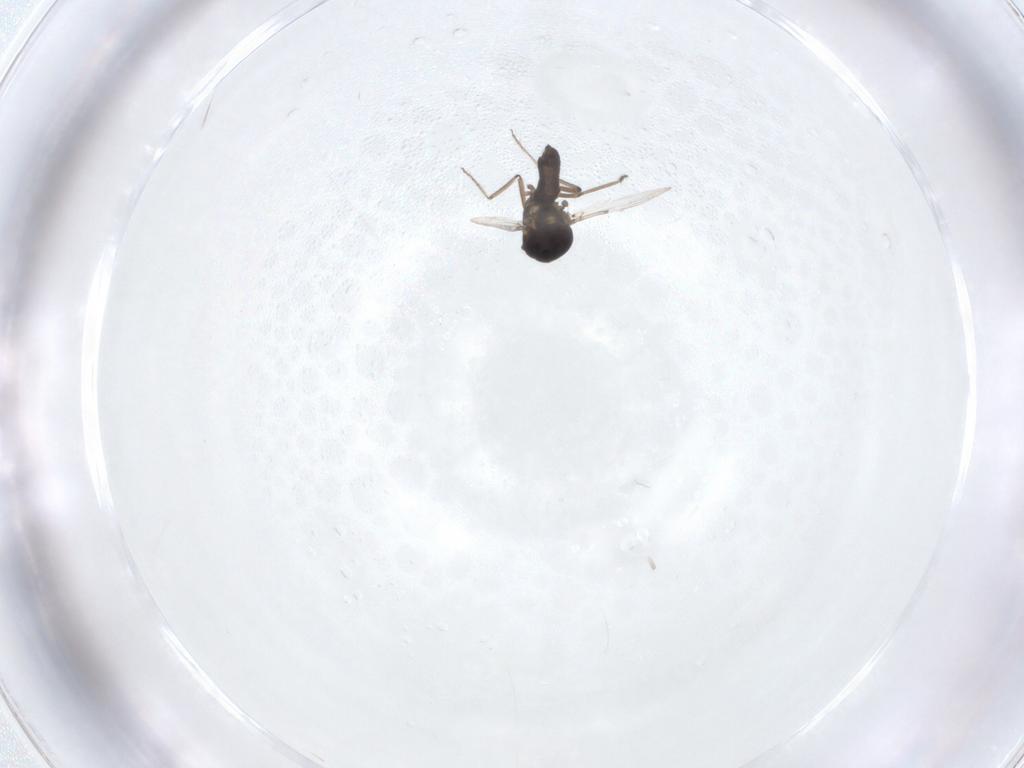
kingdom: Animalia
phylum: Arthropoda
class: Insecta
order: Diptera
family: Ceratopogonidae
